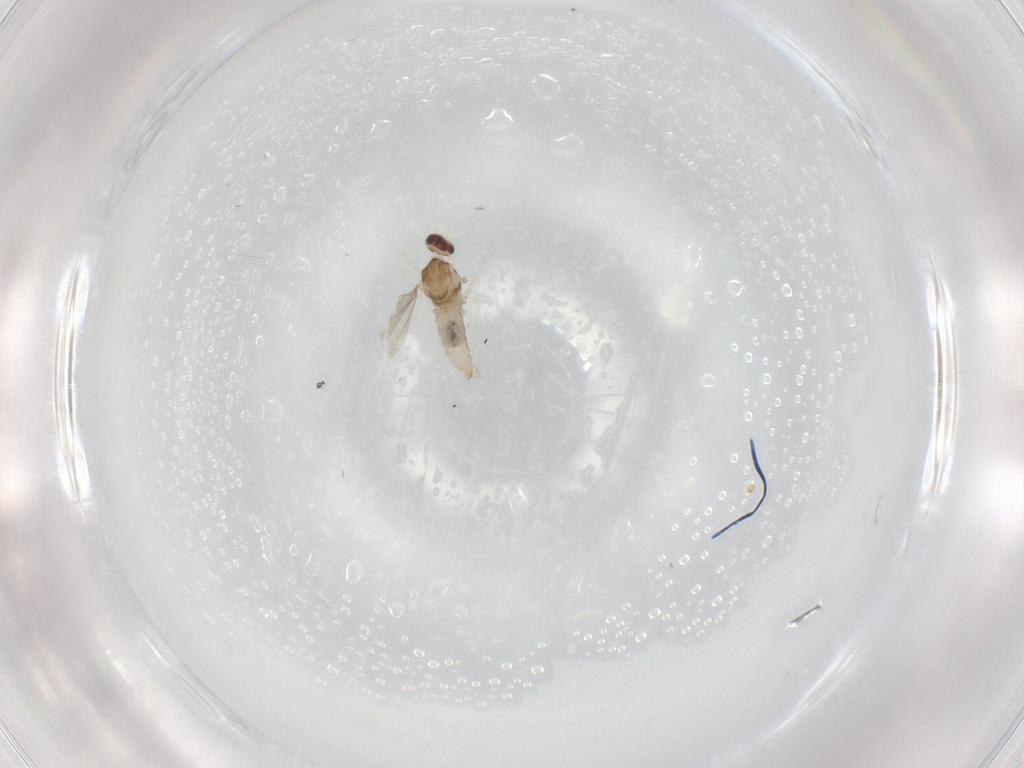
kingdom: Animalia
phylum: Arthropoda
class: Insecta
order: Diptera
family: Cecidomyiidae
